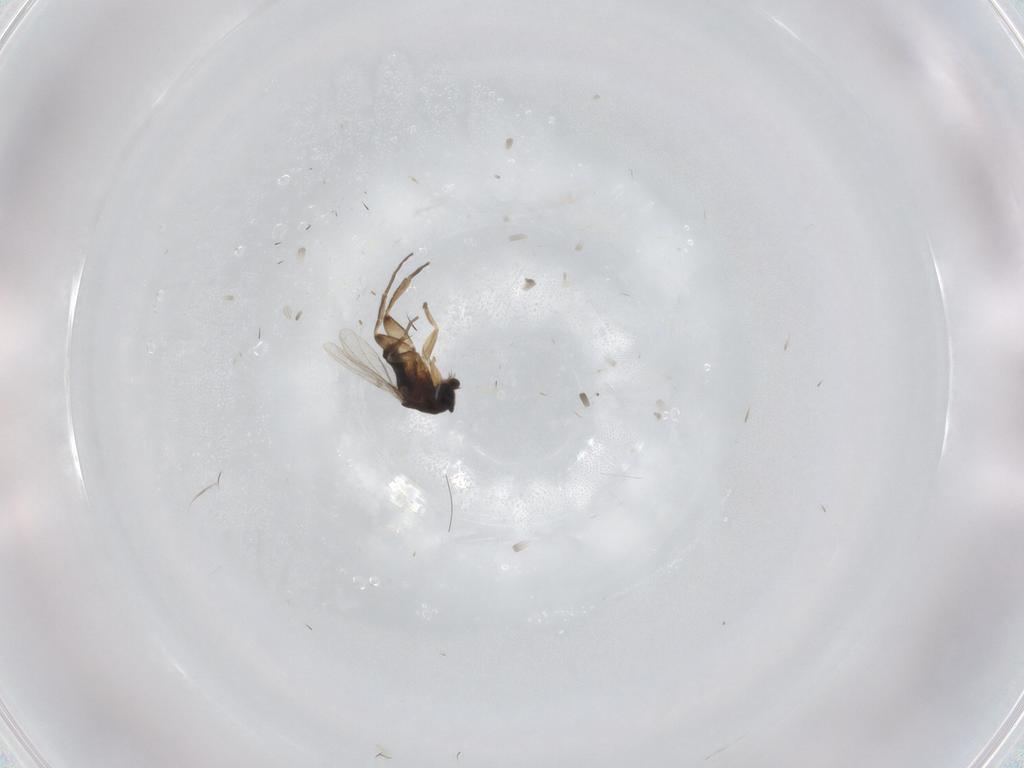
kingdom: Animalia
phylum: Arthropoda
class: Insecta
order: Diptera
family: Phoridae
